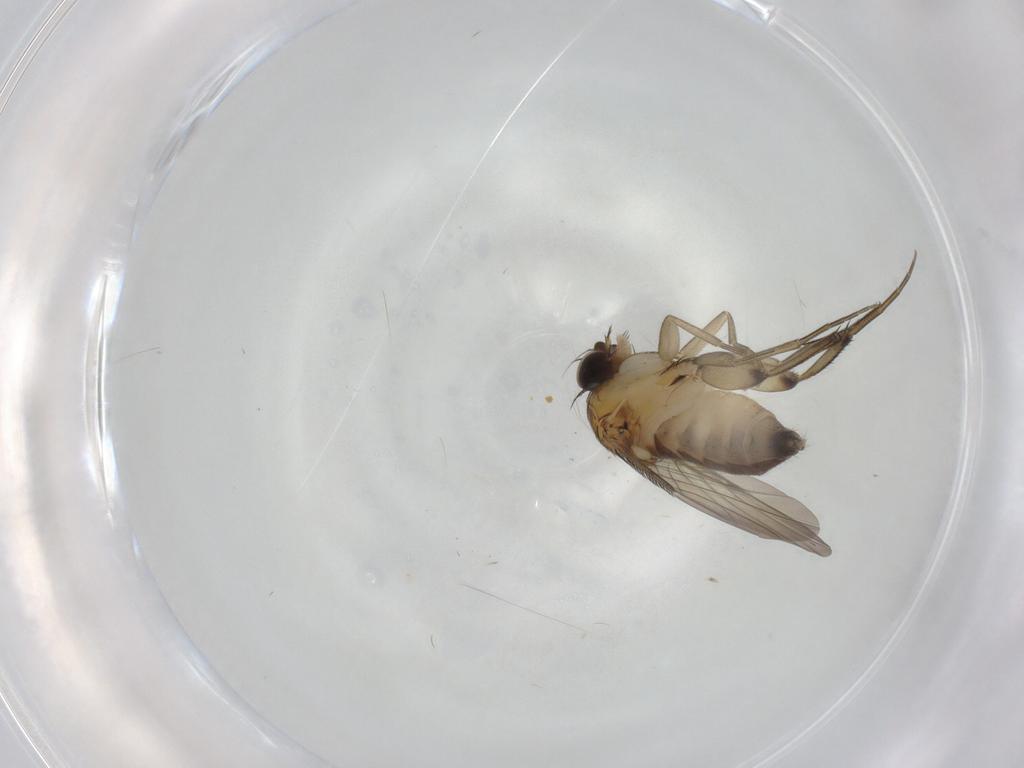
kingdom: Animalia
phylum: Arthropoda
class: Insecta
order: Diptera
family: Phoridae
